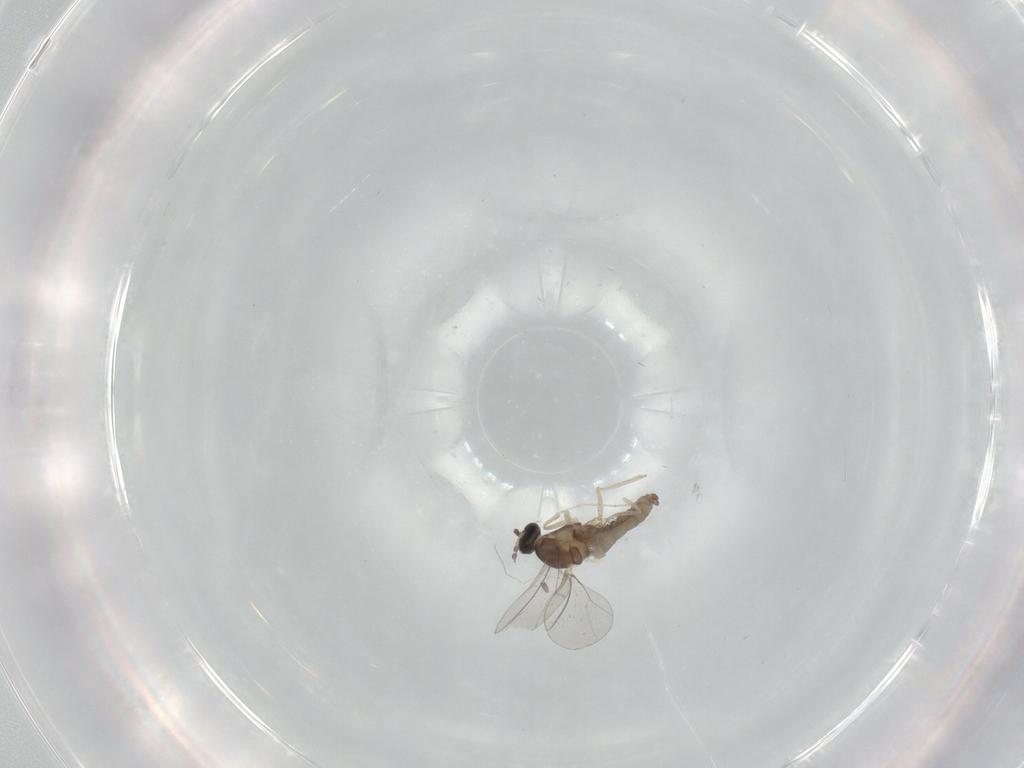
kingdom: Animalia
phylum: Arthropoda
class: Insecta
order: Diptera
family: Cecidomyiidae
